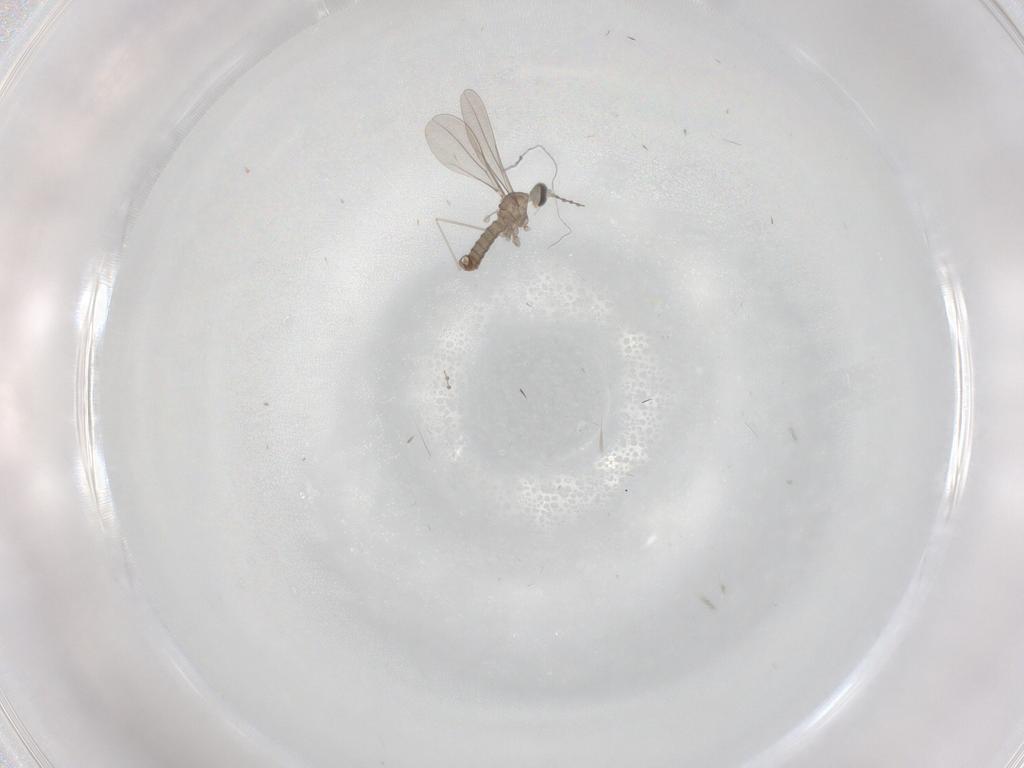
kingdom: Animalia
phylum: Arthropoda
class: Insecta
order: Diptera
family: Phoridae
